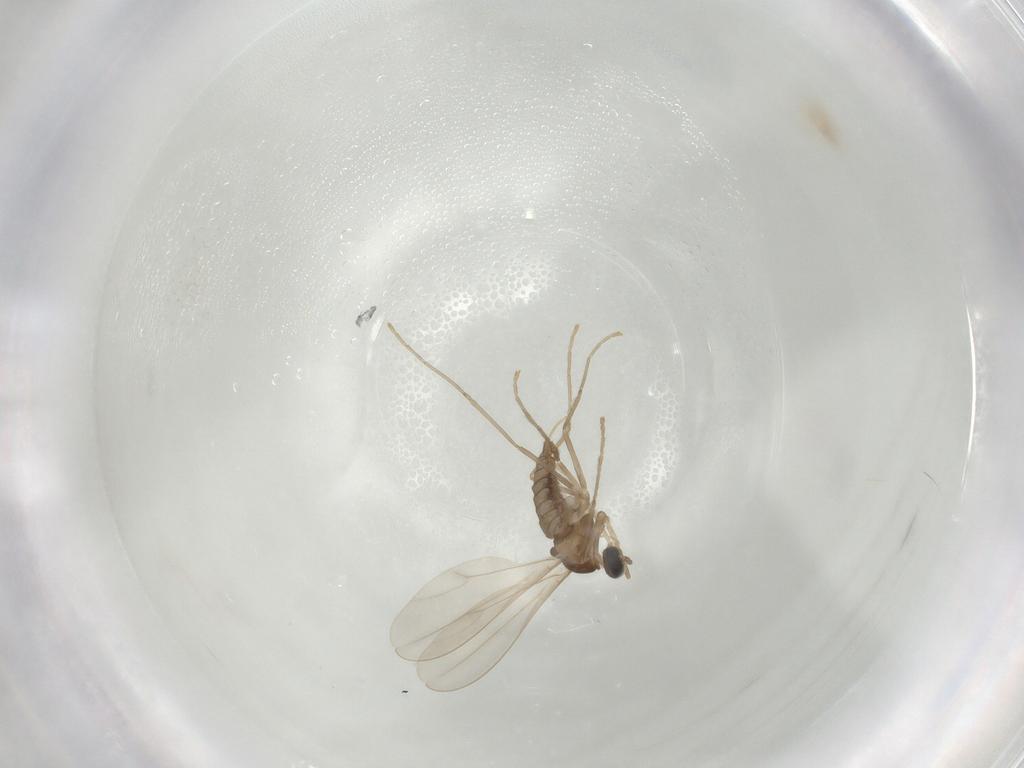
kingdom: Animalia
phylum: Arthropoda
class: Insecta
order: Diptera
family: Cecidomyiidae
